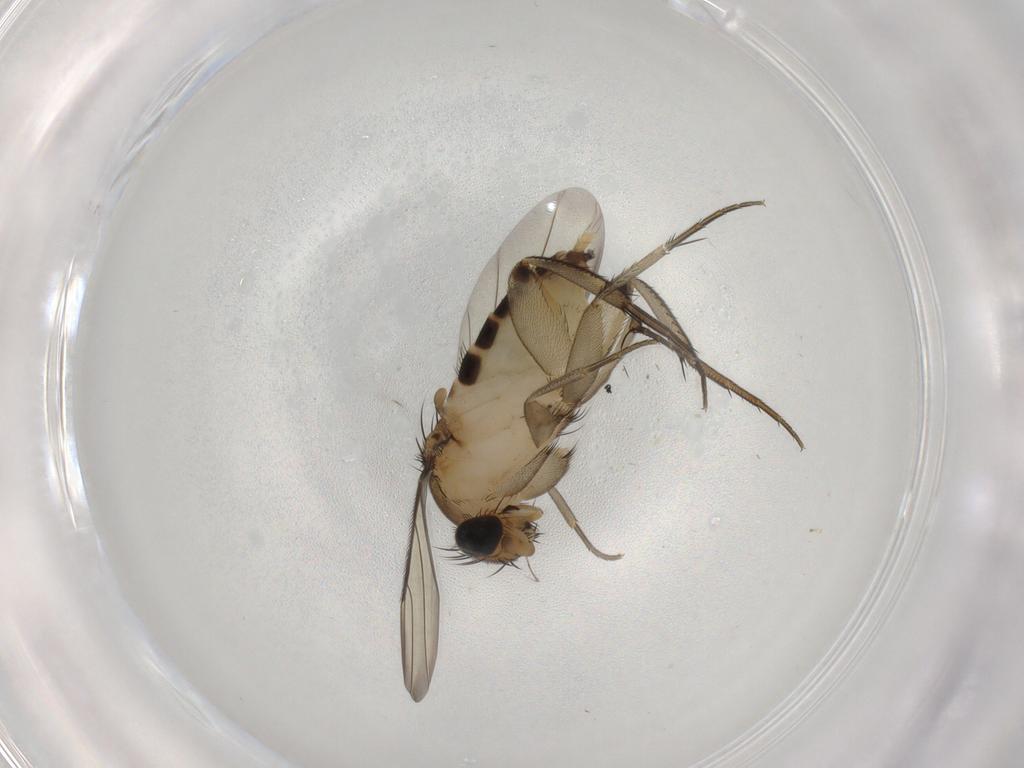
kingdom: Animalia
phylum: Arthropoda
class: Insecta
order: Diptera
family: Phoridae
